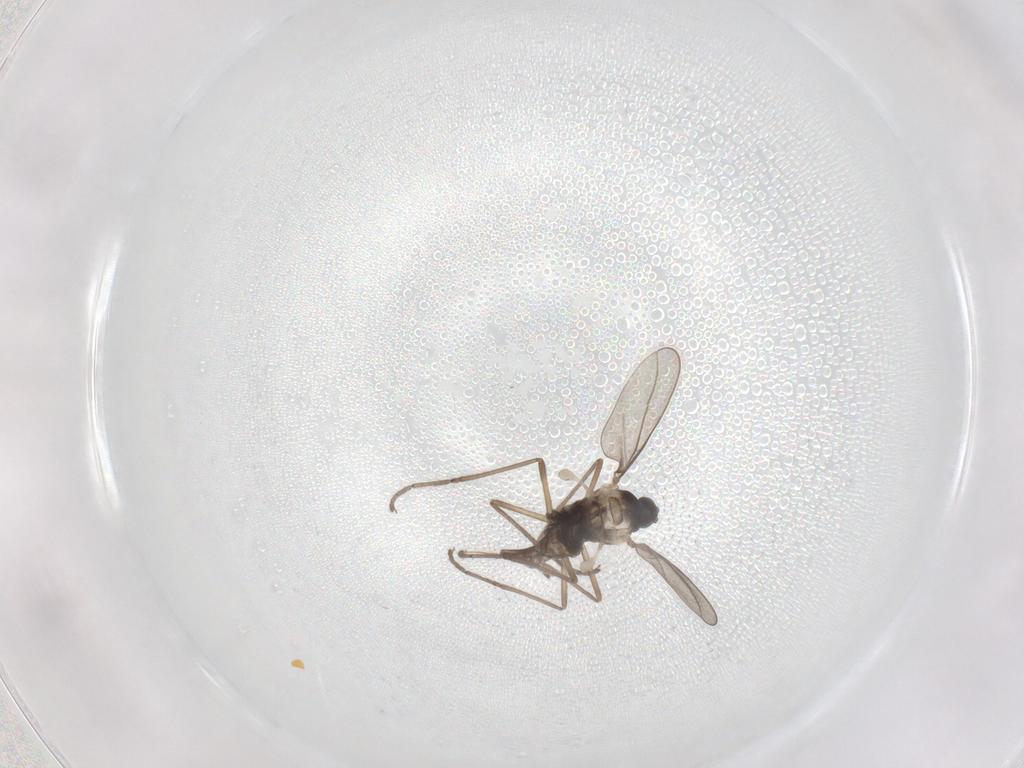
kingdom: Animalia
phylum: Arthropoda
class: Insecta
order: Diptera
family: Cecidomyiidae
